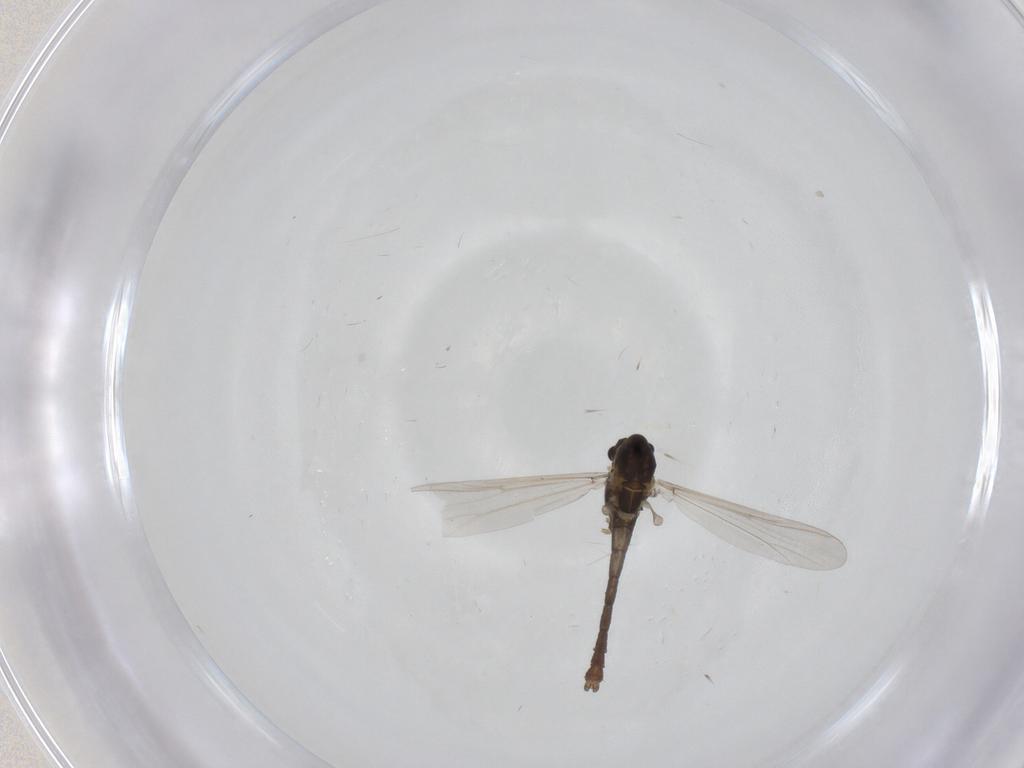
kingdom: Animalia
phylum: Arthropoda
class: Insecta
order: Diptera
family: Chironomidae
